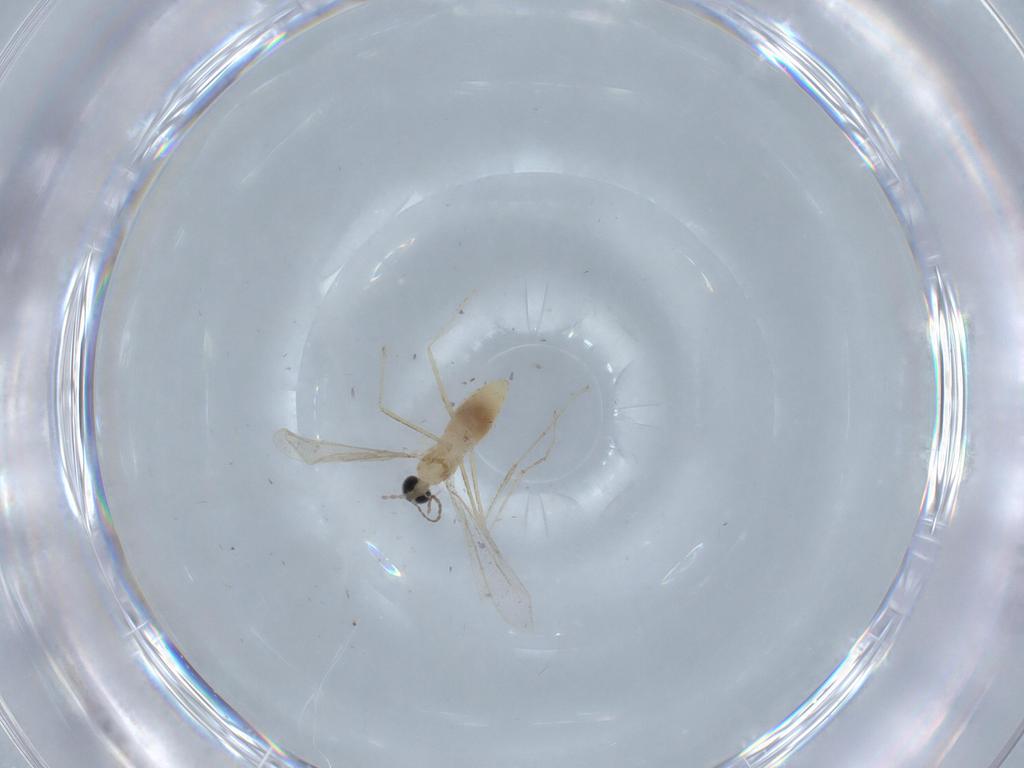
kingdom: Animalia
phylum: Arthropoda
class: Insecta
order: Diptera
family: Cecidomyiidae
